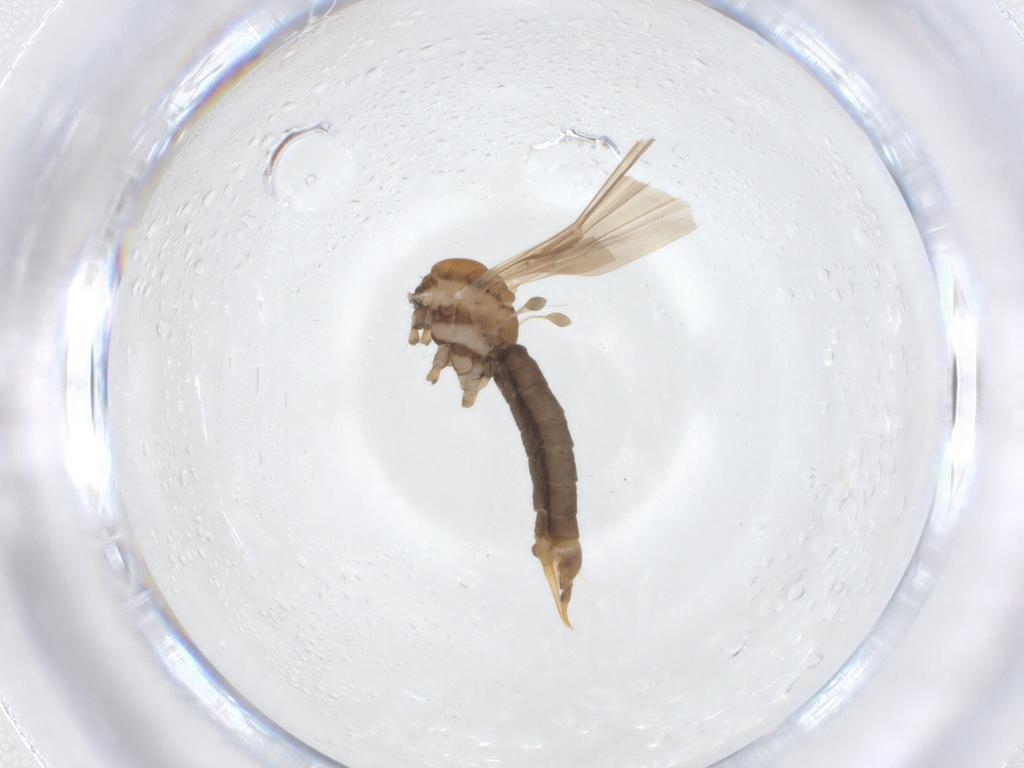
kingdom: Animalia
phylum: Arthropoda
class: Insecta
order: Diptera
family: Limoniidae
